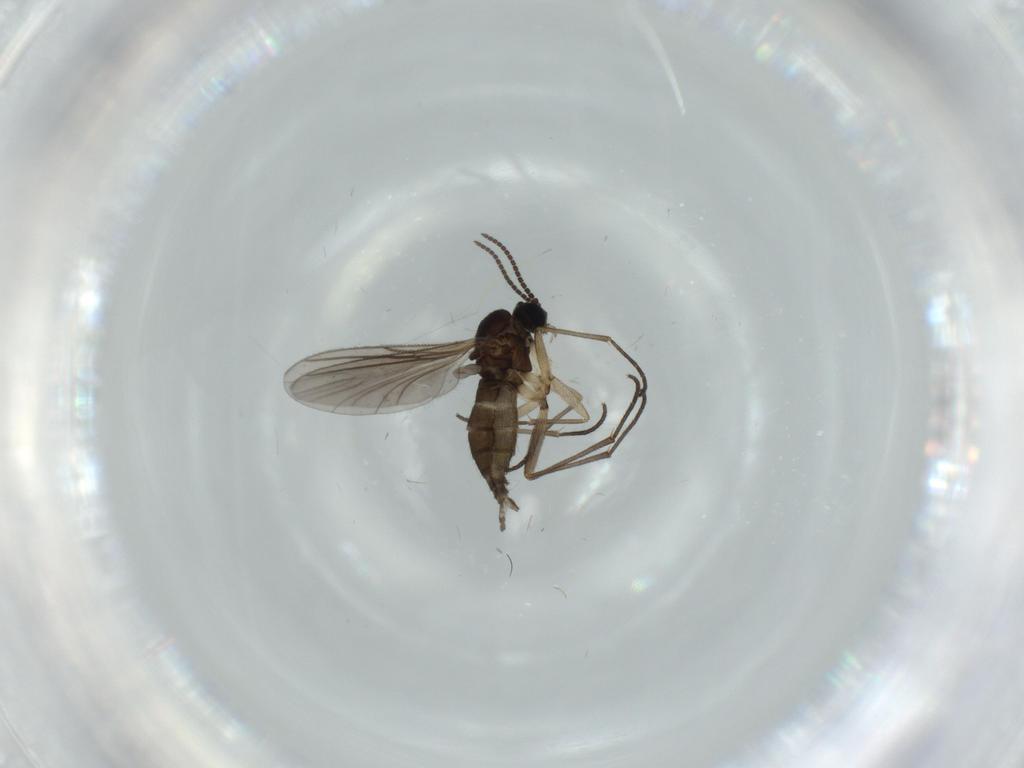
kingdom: Animalia
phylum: Arthropoda
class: Insecta
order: Diptera
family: Sciaridae
